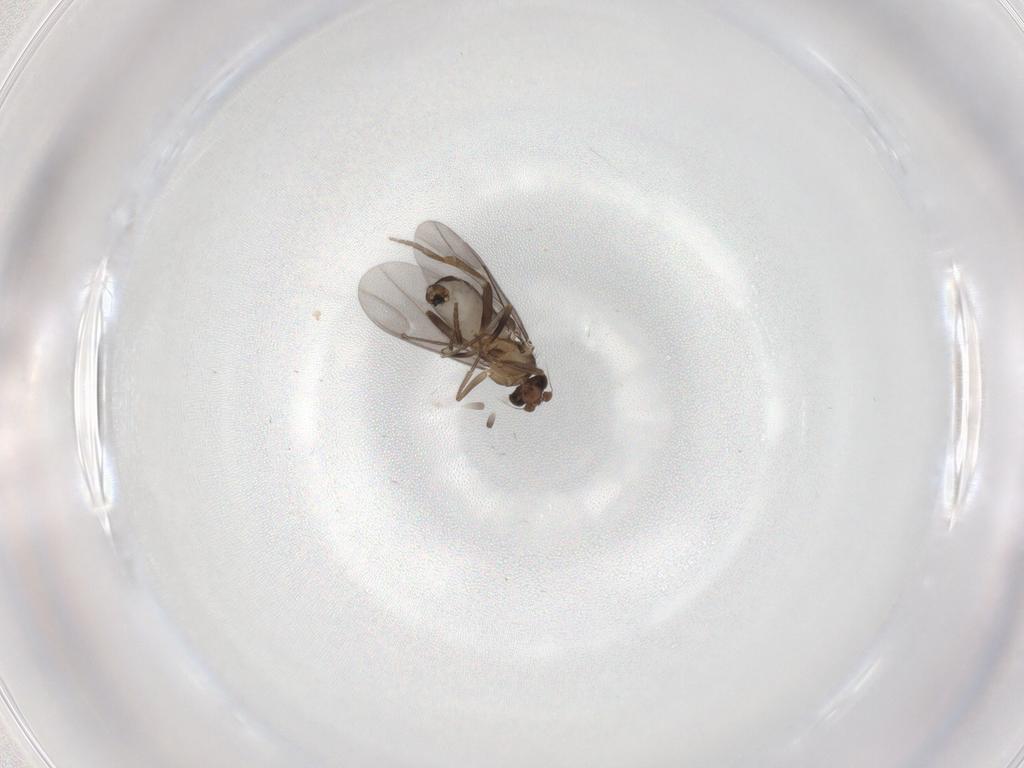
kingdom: Animalia
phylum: Arthropoda
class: Insecta
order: Diptera
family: Phoridae
